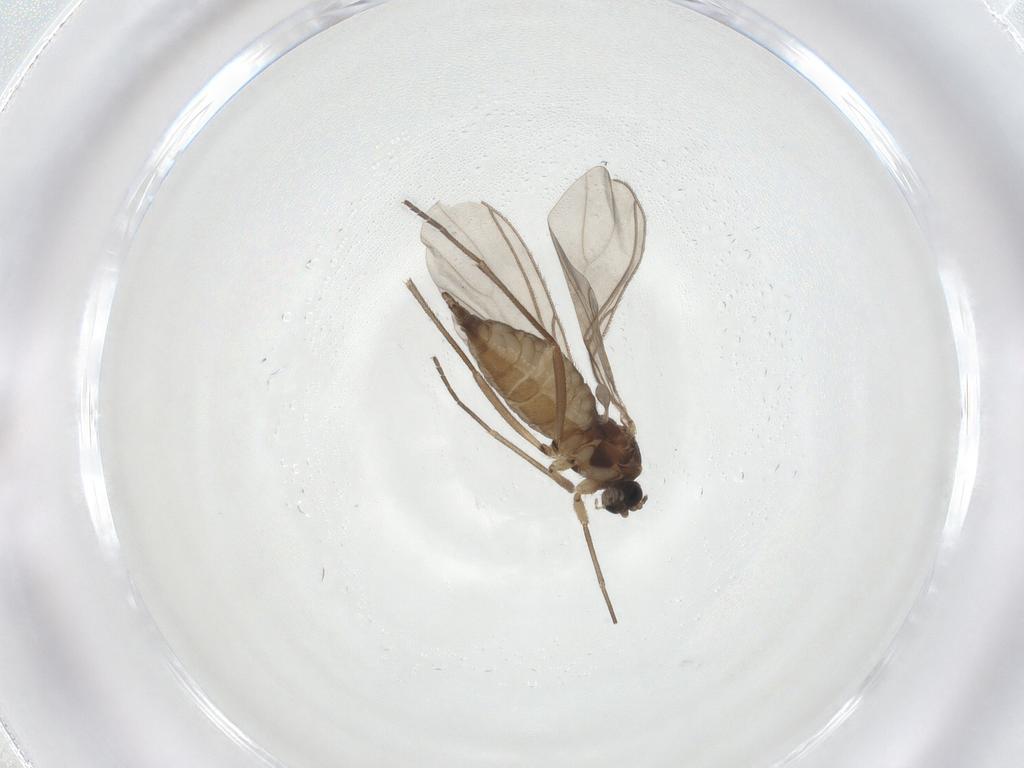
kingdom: Animalia
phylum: Arthropoda
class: Insecta
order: Diptera
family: Sciaridae
